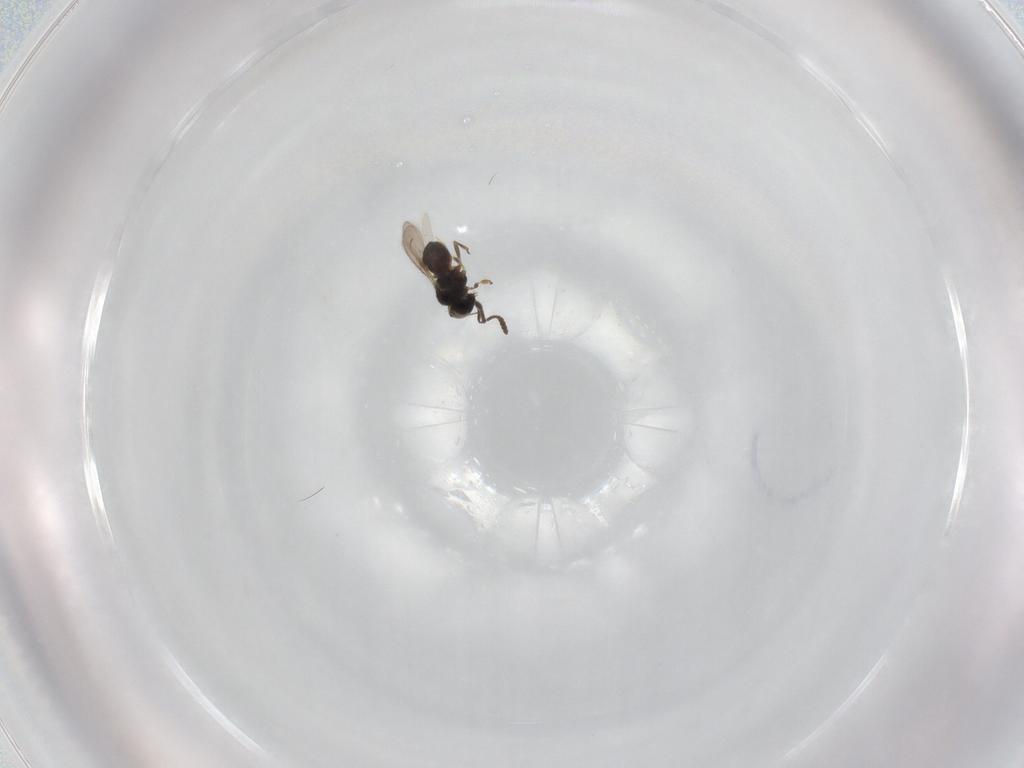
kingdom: Animalia
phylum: Arthropoda
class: Insecta
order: Hymenoptera
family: Scelionidae
